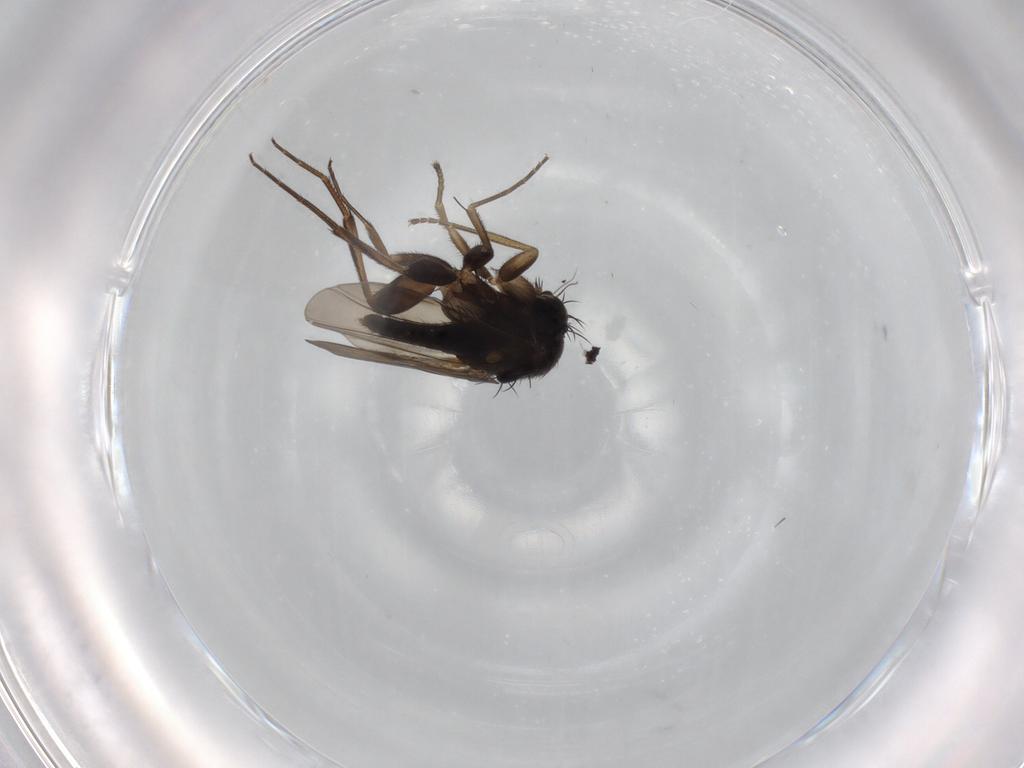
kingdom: Animalia
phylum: Arthropoda
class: Insecta
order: Diptera
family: Phoridae
